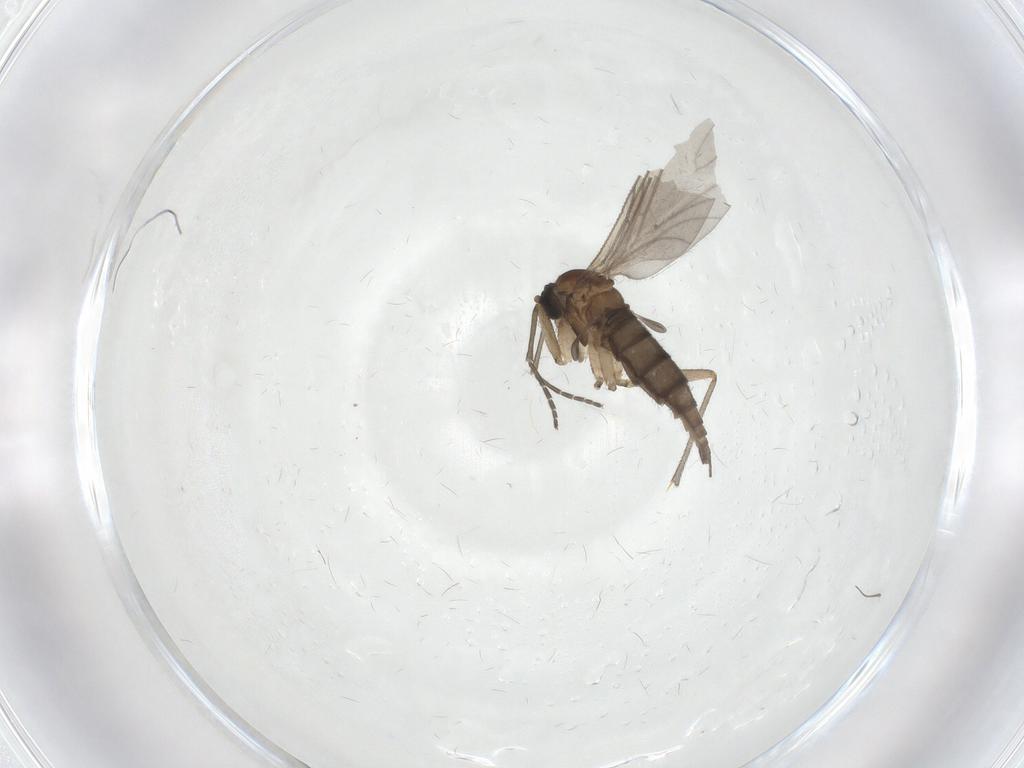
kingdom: Animalia
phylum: Arthropoda
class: Insecta
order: Diptera
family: Sciaridae
